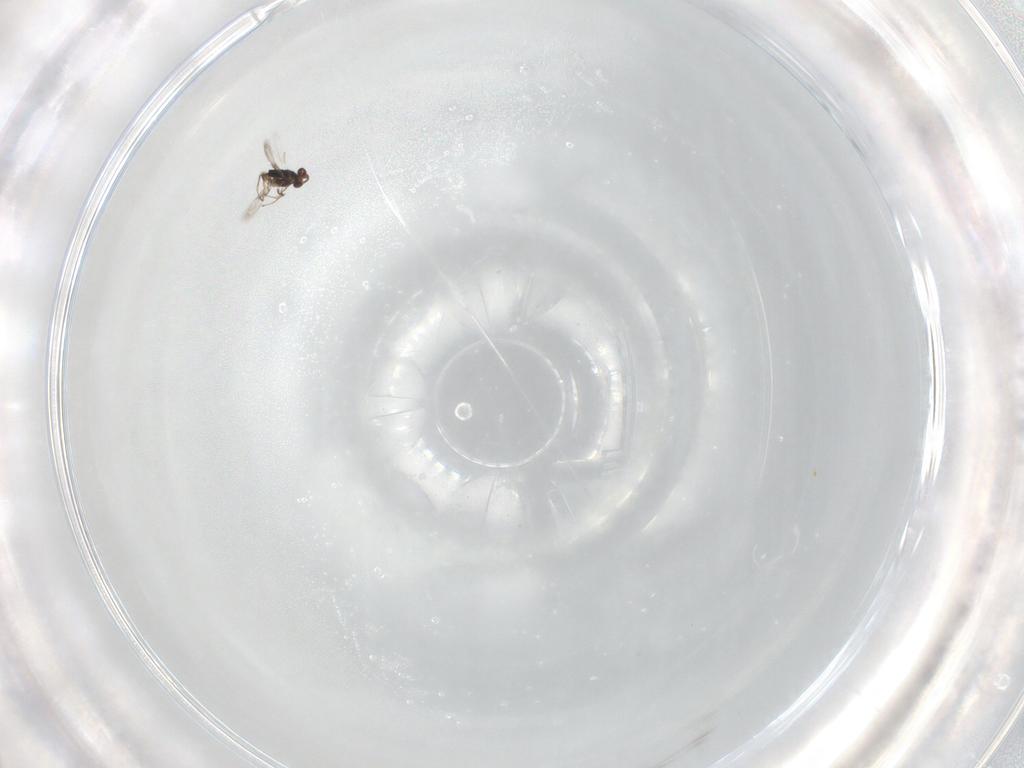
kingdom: Animalia
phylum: Arthropoda
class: Insecta
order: Hymenoptera
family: Azotidae
